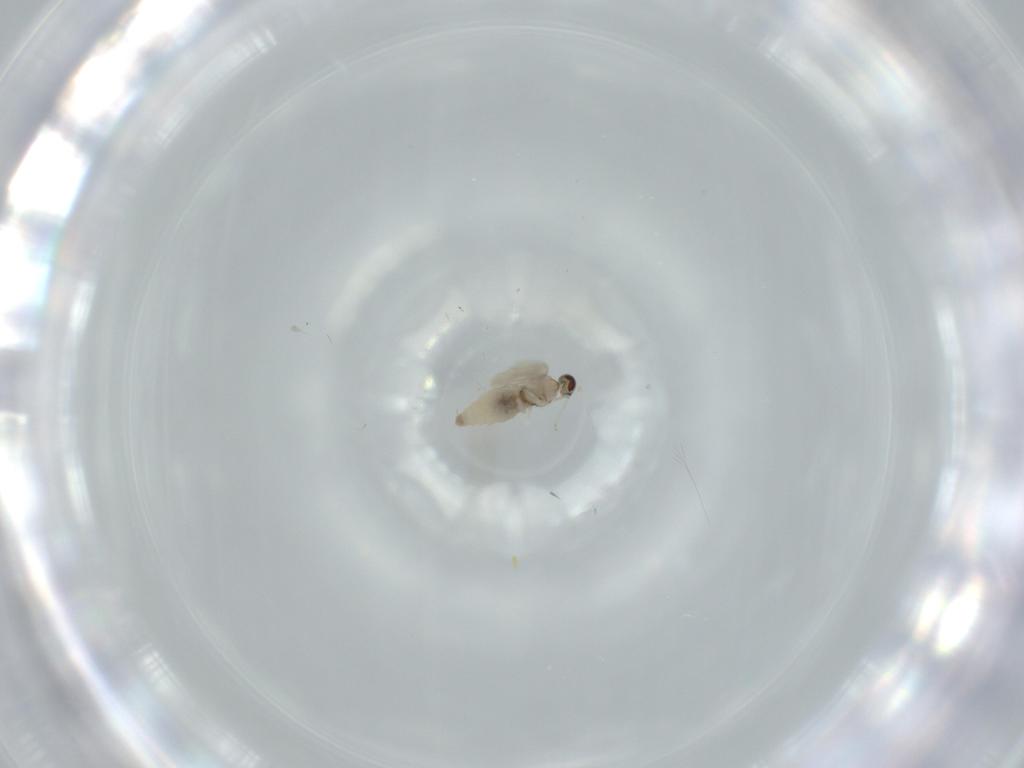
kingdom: Animalia
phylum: Arthropoda
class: Insecta
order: Diptera
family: Cecidomyiidae
